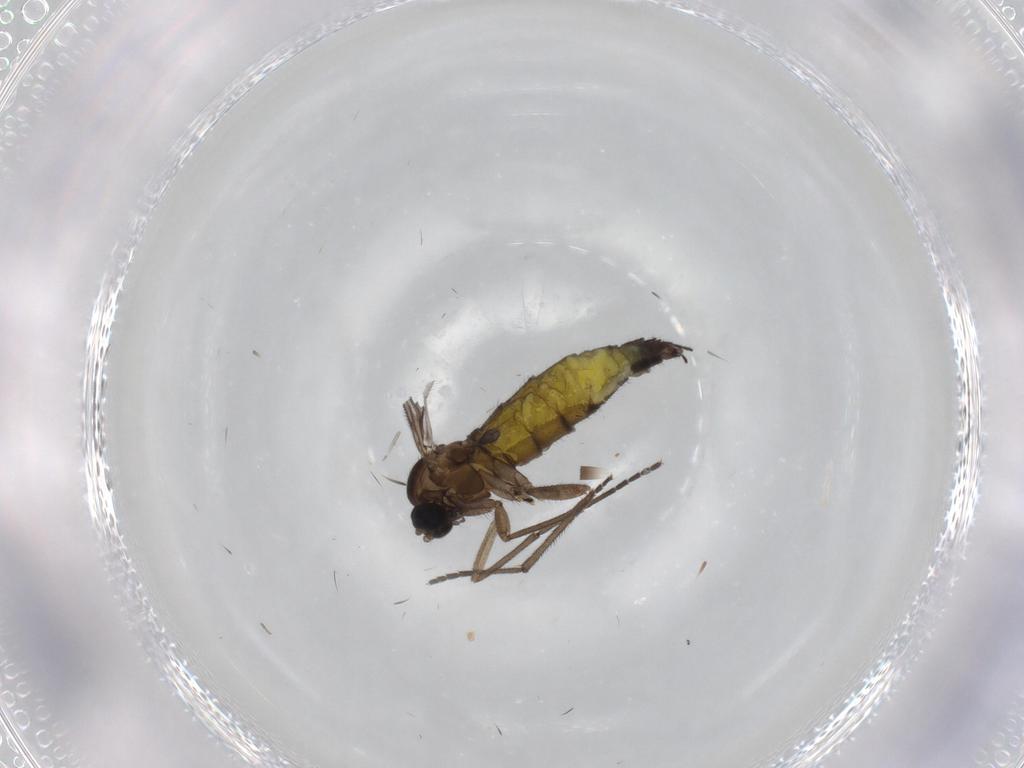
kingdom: Animalia
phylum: Arthropoda
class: Insecta
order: Diptera
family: Sciaridae
